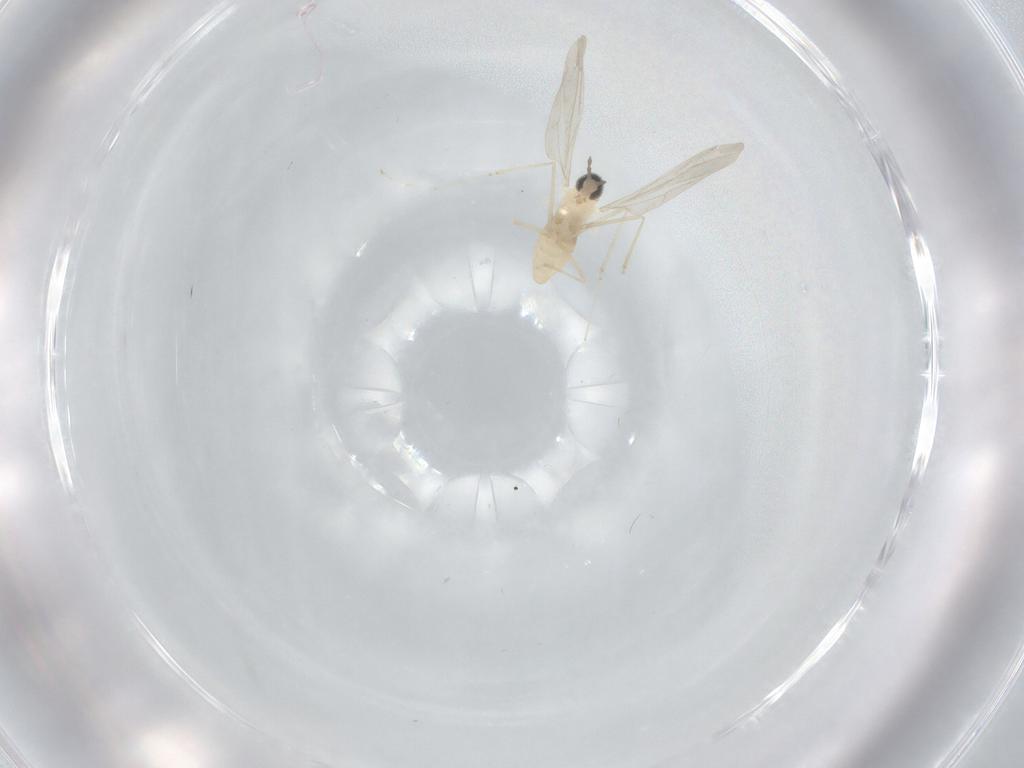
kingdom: Animalia
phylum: Arthropoda
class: Insecta
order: Diptera
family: Cecidomyiidae
